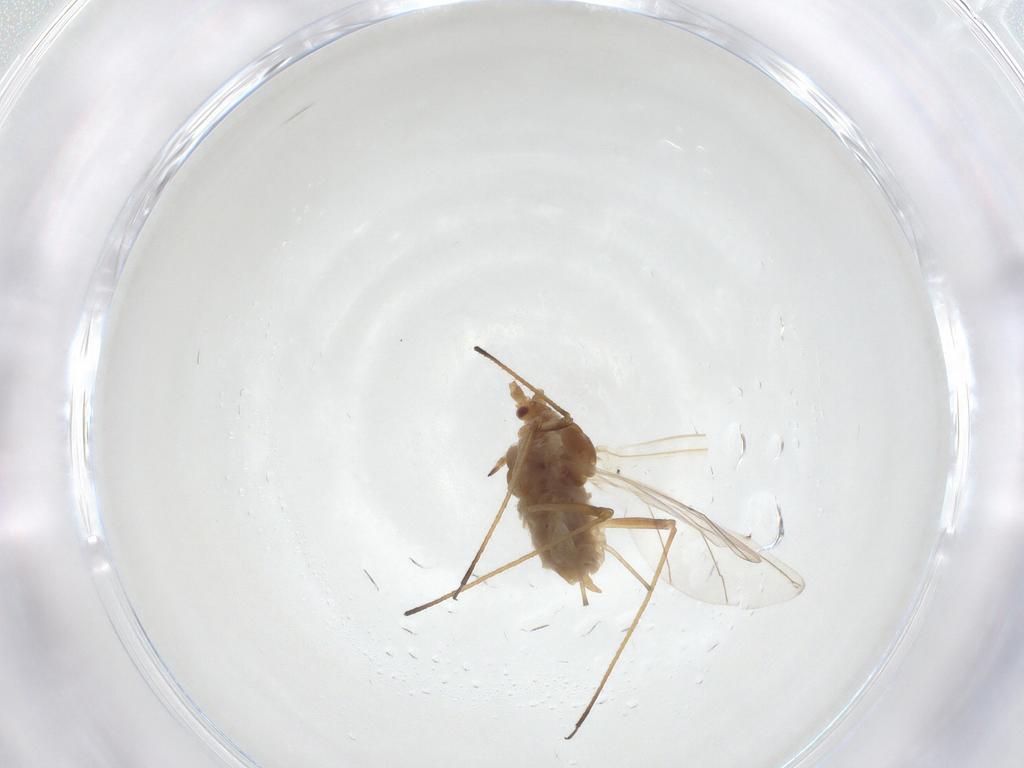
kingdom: Animalia
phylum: Arthropoda
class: Insecta
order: Hemiptera
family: Aphididae
